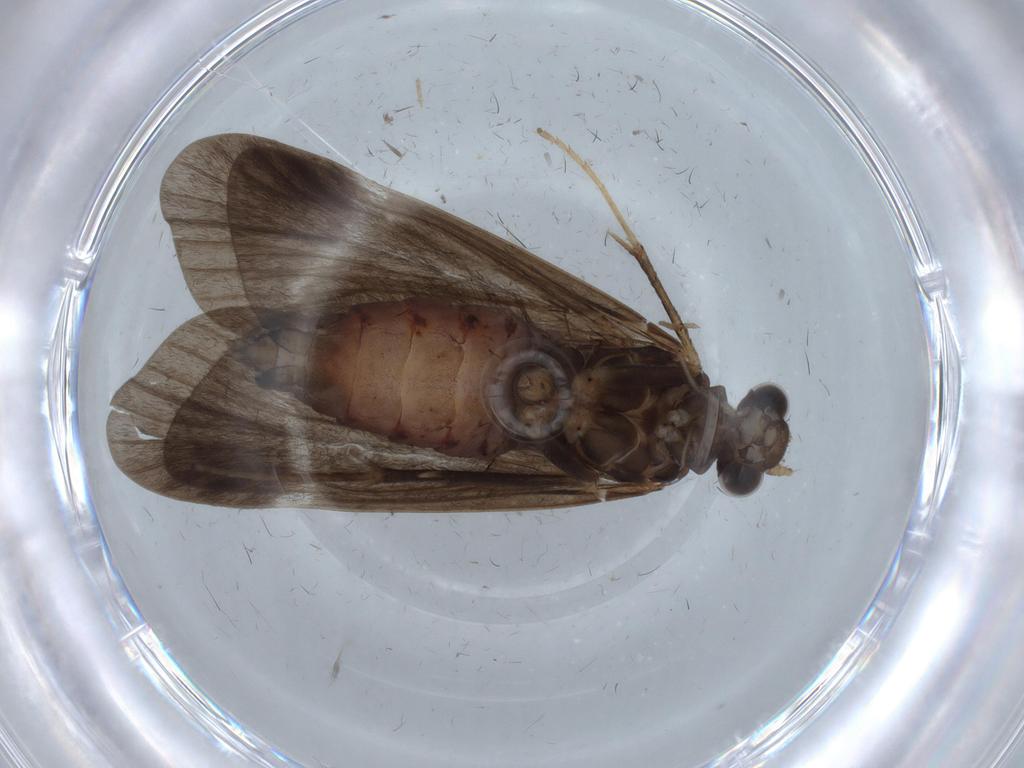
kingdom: Animalia
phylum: Arthropoda
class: Insecta
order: Trichoptera
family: Hydropsychidae
